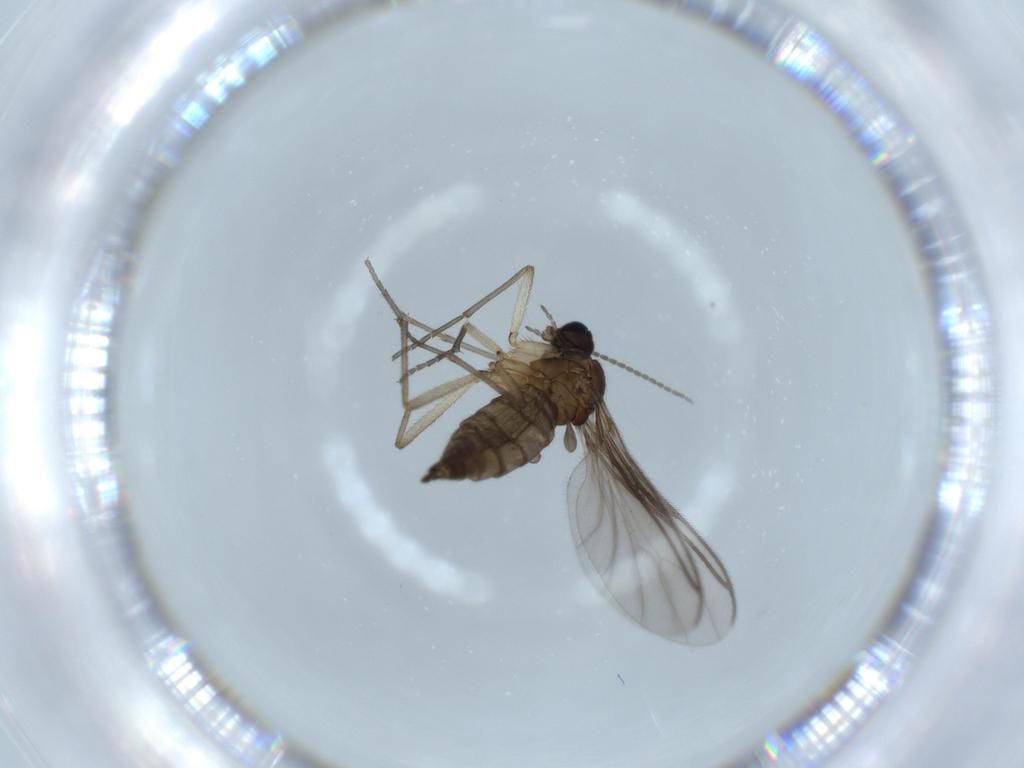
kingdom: Animalia
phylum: Arthropoda
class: Insecta
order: Diptera
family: Sciaridae
